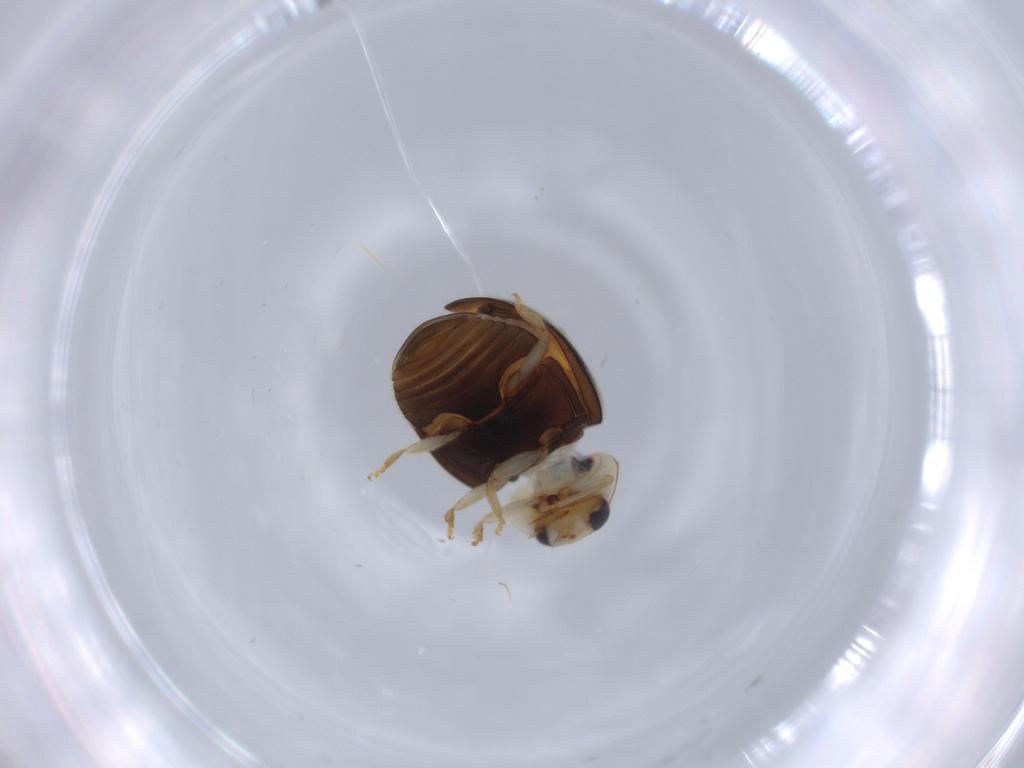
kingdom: Animalia
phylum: Arthropoda
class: Insecta
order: Coleoptera
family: Coccinellidae
